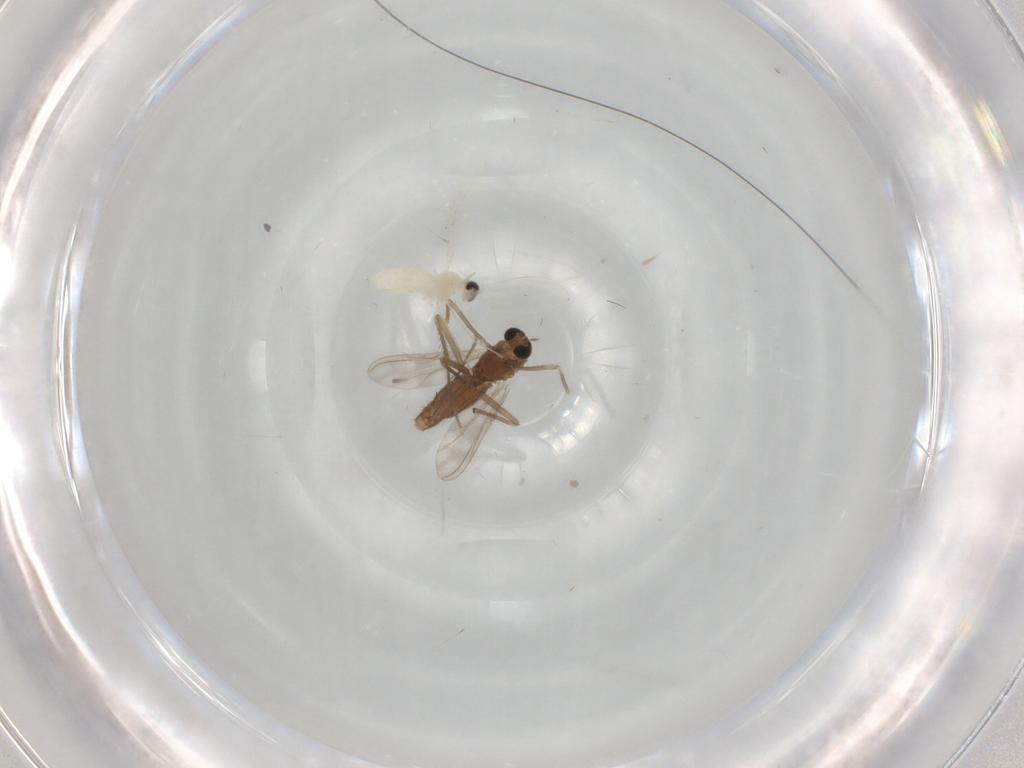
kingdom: Animalia
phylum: Arthropoda
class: Insecta
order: Diptera
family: Cecidomyiidae
